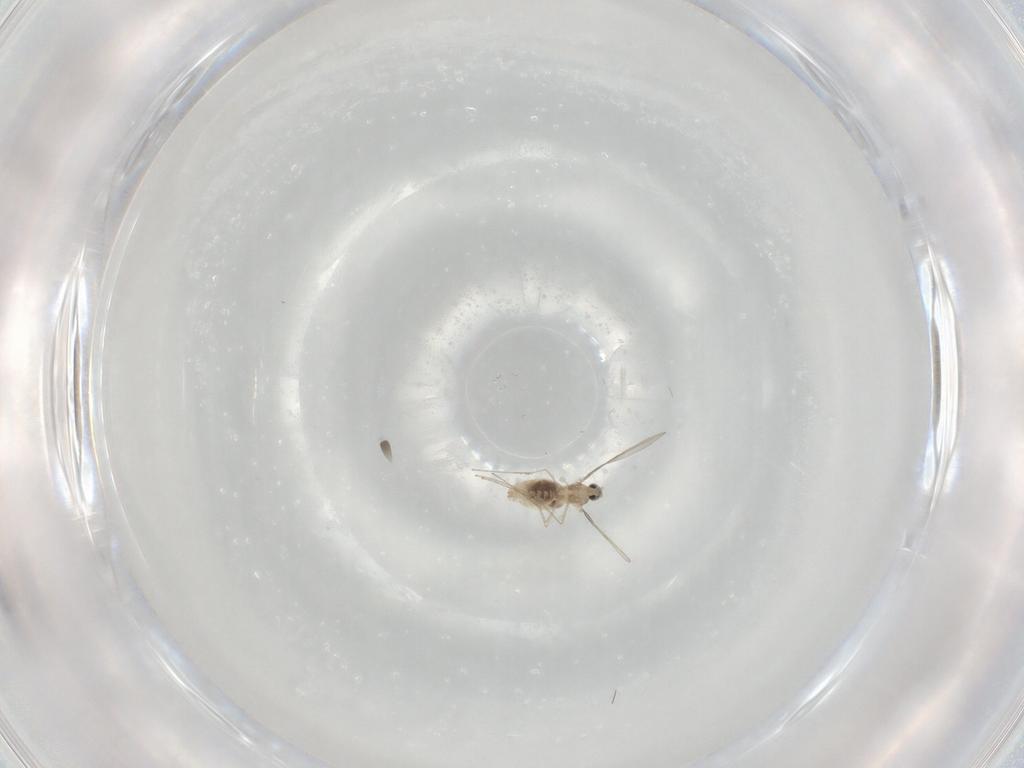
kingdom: Animalia
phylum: Arthropoda
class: Insecta
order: Diptera
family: Cecidomyiidae
